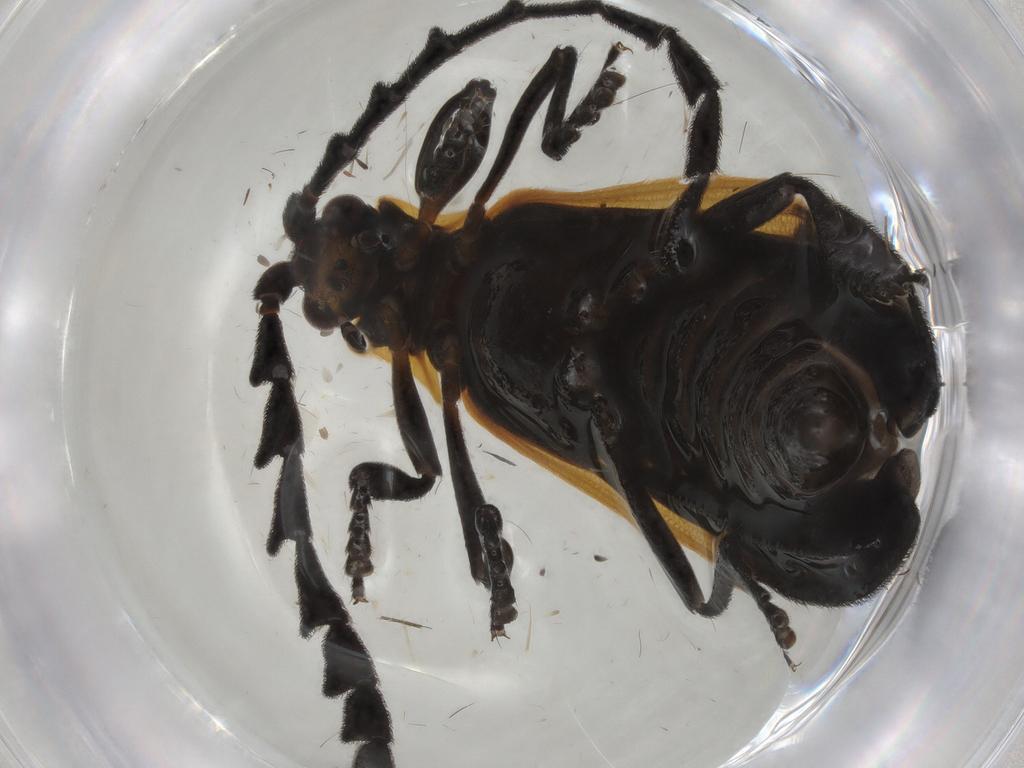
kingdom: Animalia
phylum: Arthropoda
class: Insecta
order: Coleoptera
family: Lycidae
